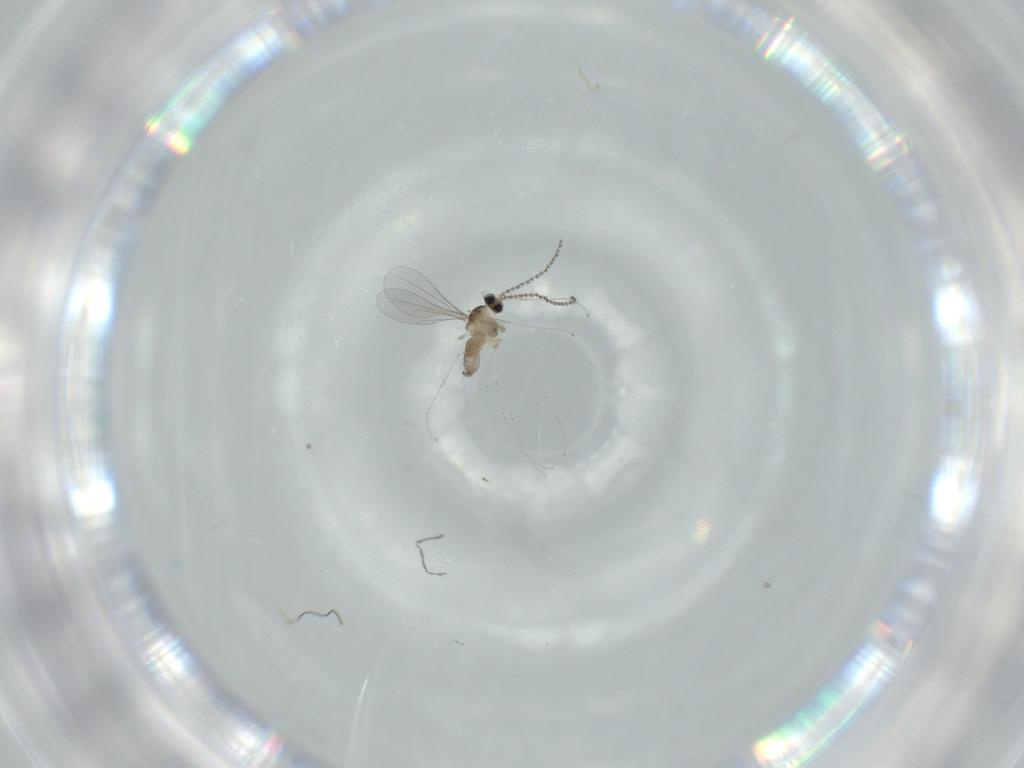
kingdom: Animalia
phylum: Arthropoda
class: Insecta
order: Diptera
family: Cecidomyiidae
